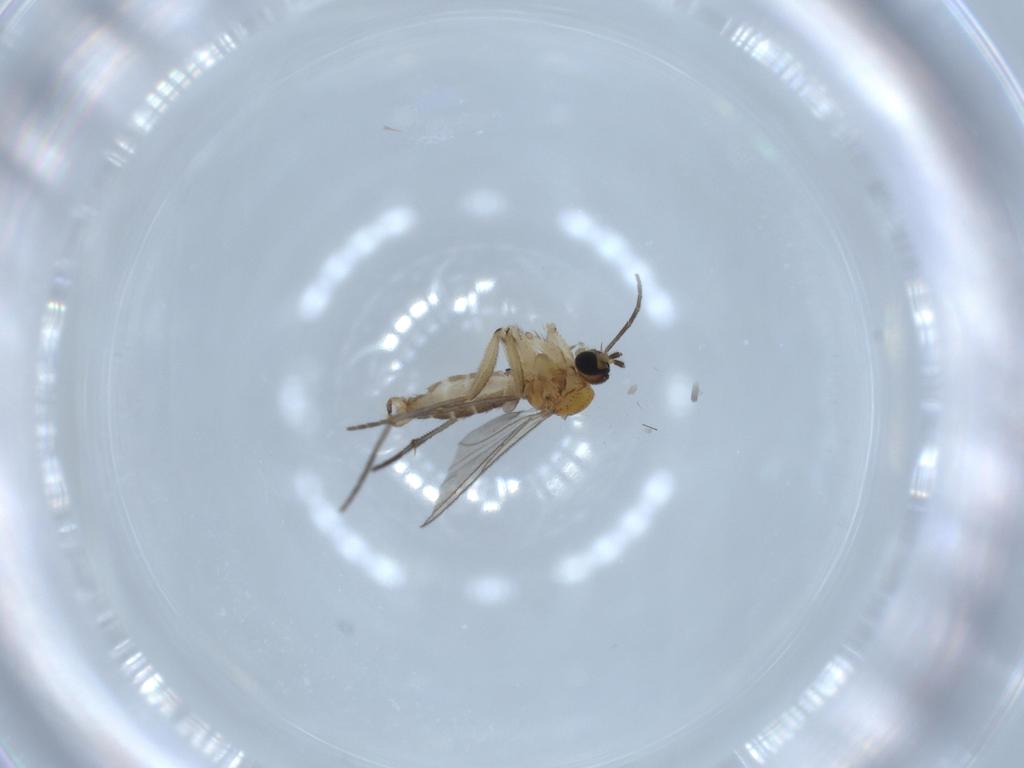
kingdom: Animalia
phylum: Arthropoda
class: Insecta
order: Diptera
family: Sciaridae
